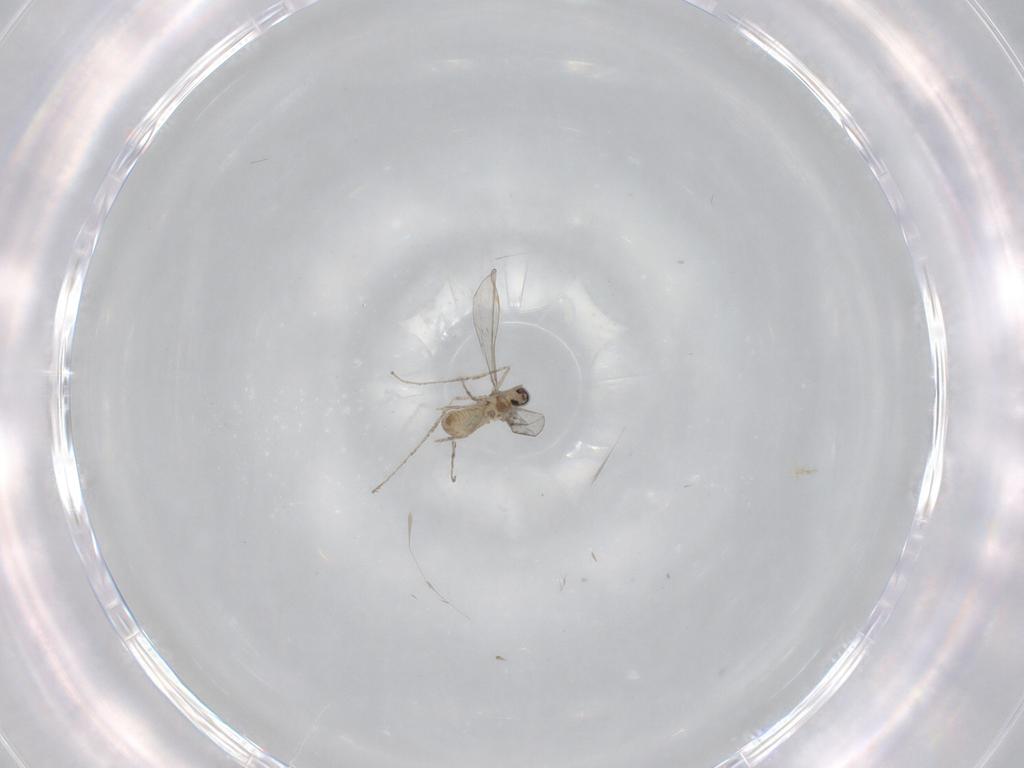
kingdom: Animalia
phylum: Arthropoda
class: Insecta
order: Diptera
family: Cecidomyiidae
